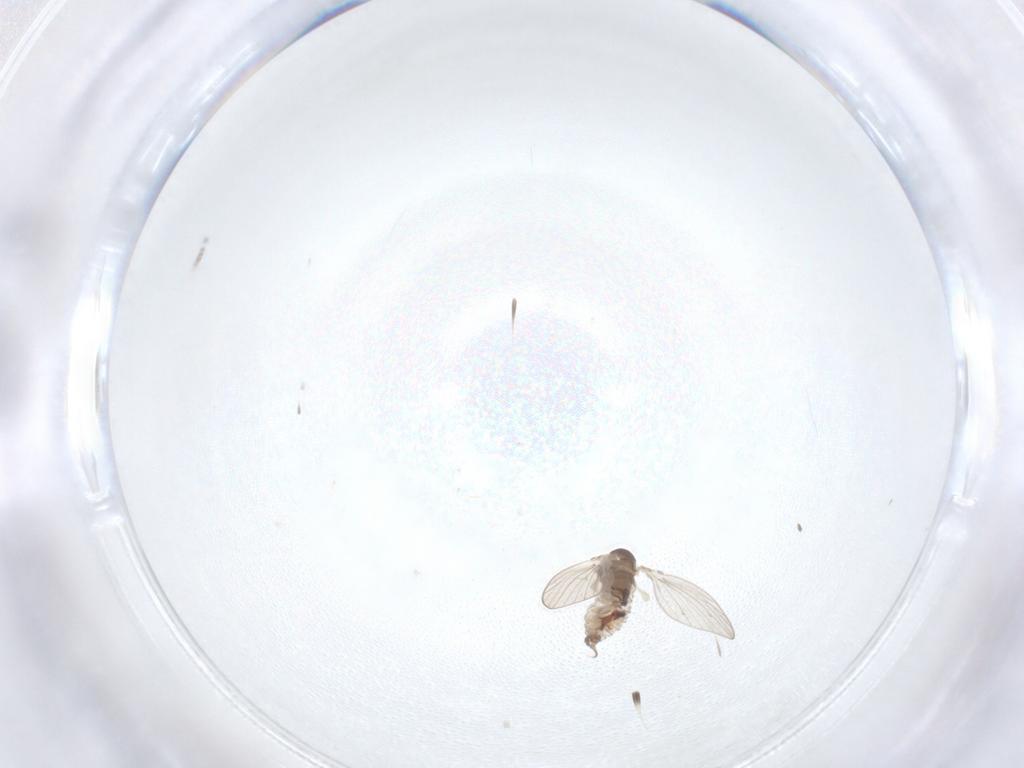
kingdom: Animalia
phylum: Arthropoda
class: Insecta
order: Diptera
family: Psychodidae
